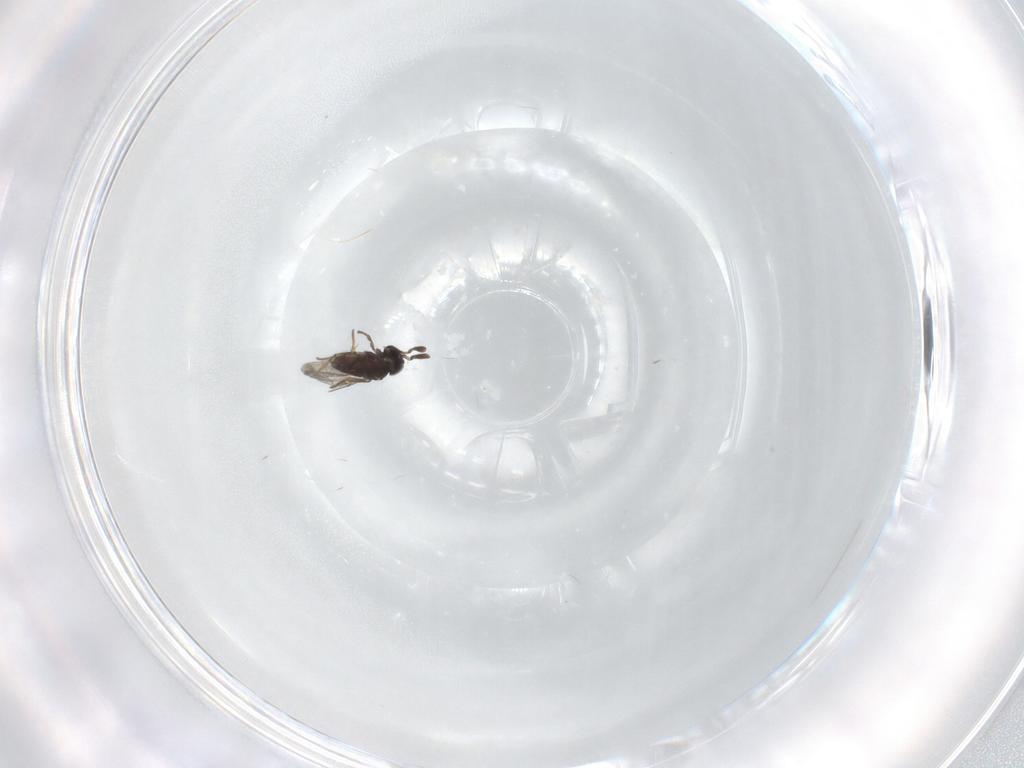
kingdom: Animalia
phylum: Arthropoda
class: Insecta
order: Hymenoptera
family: Encyrtidae
